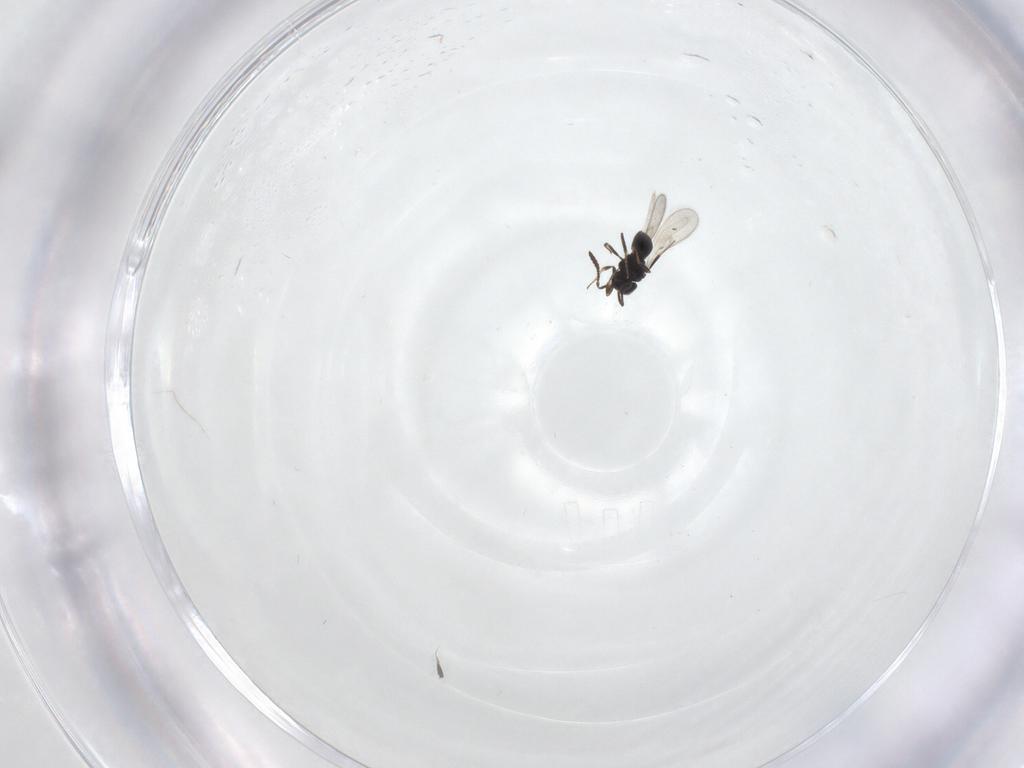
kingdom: Animalia
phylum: Arthropoda
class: Insecta
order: Hymenoptera
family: Scelionidae
